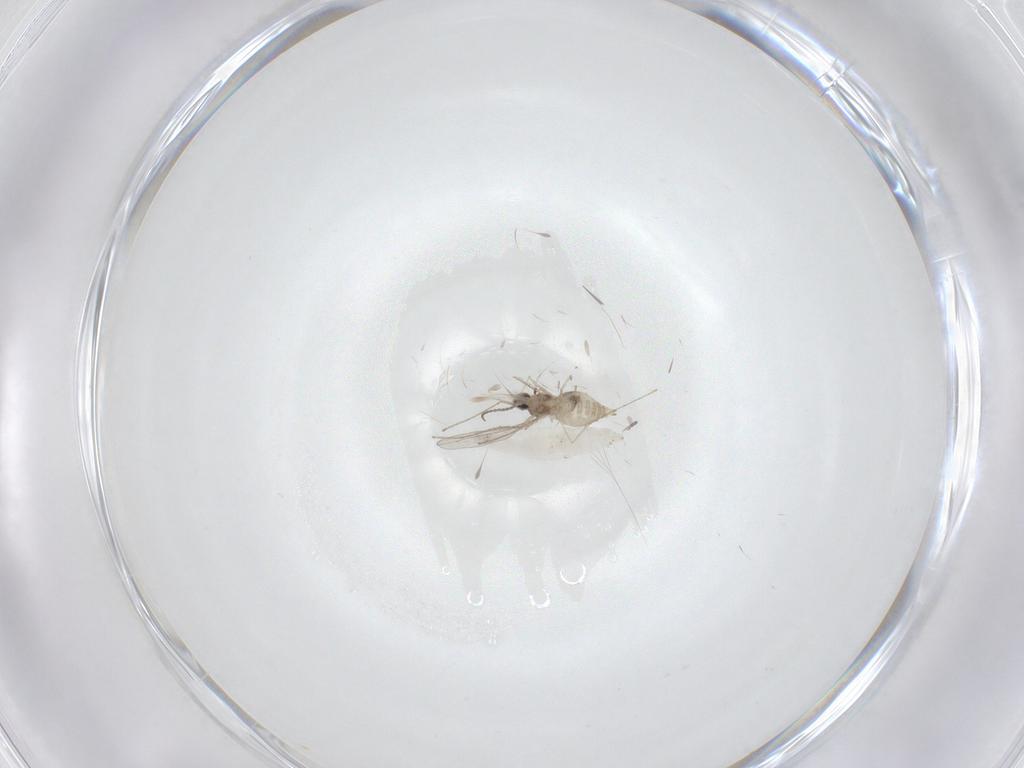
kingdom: Animalia
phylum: Arthropoda
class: Insecta
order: Diptera
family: Cecidomyiidae
